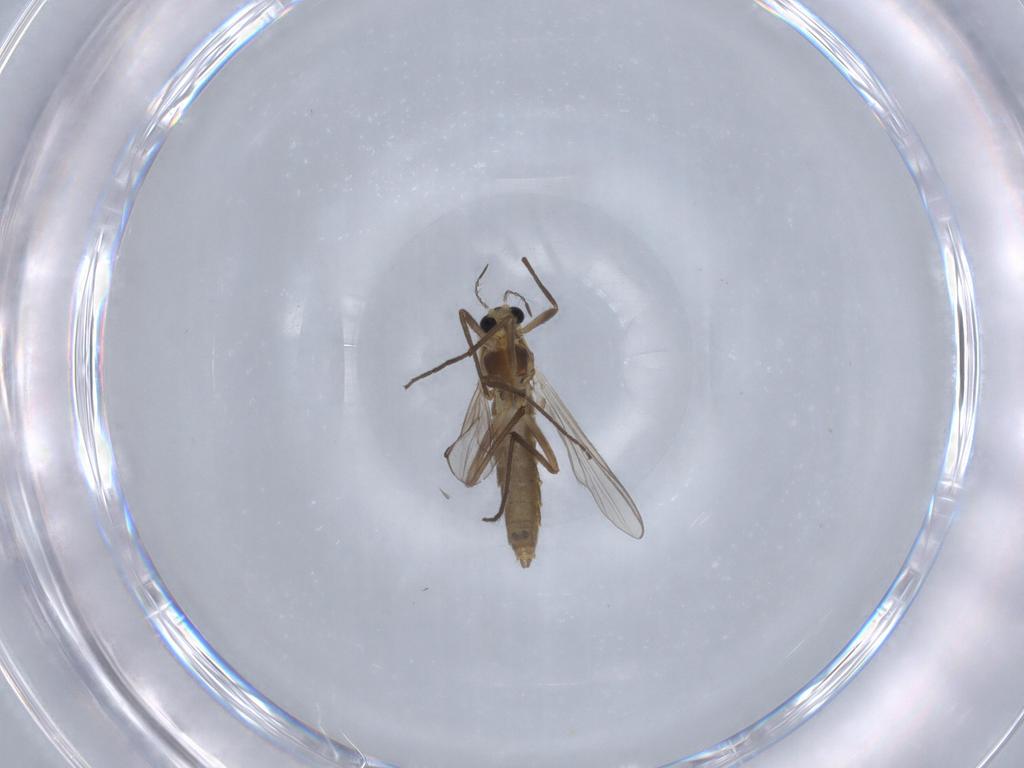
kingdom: Animalia
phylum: Arthropoda
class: Insecta
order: Diptera
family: Chironomidae
